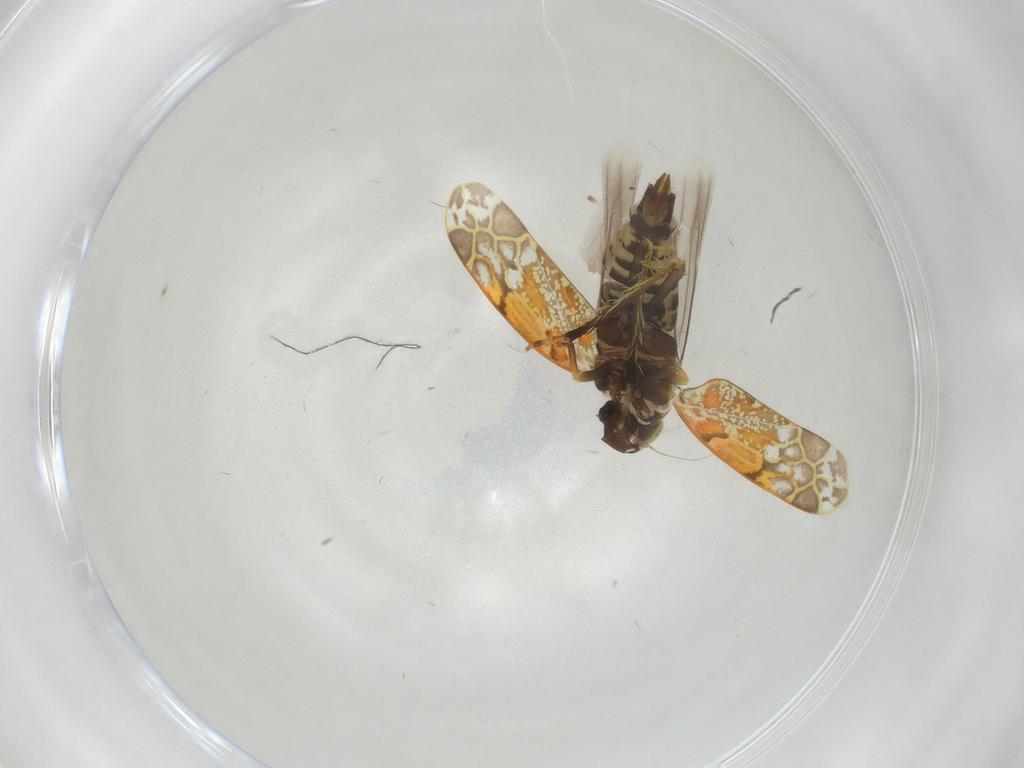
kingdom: Animalia
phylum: Arthropoda
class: Insecta
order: Hemiptera
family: Cicadellidae
